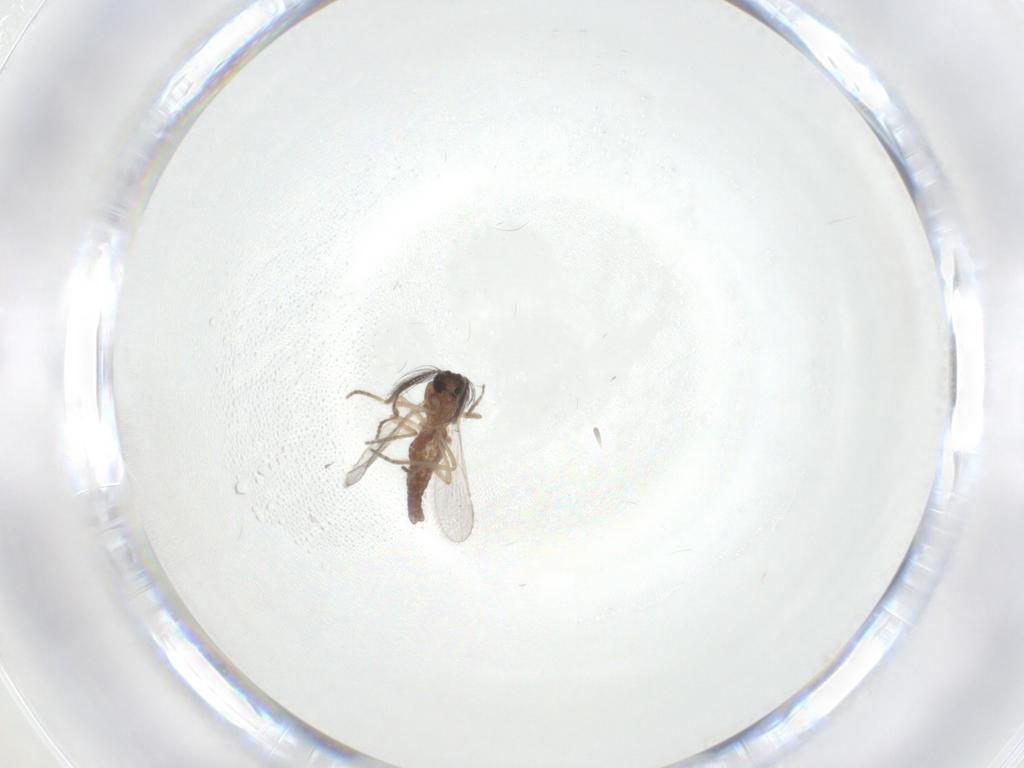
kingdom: Animalia
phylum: Arthropoda
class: Insecta
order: Diptera
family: Ceratopogonidae
